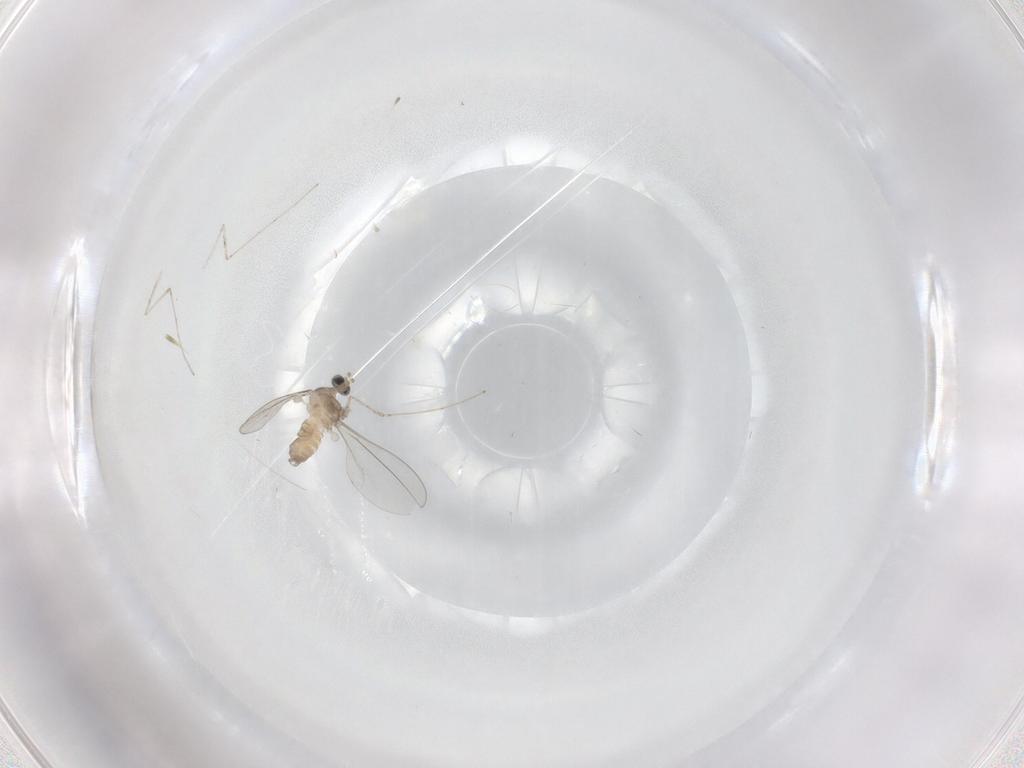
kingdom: Animalia
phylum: Arthropoda
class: Insecta
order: Diptera
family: Cecidomyiidae
